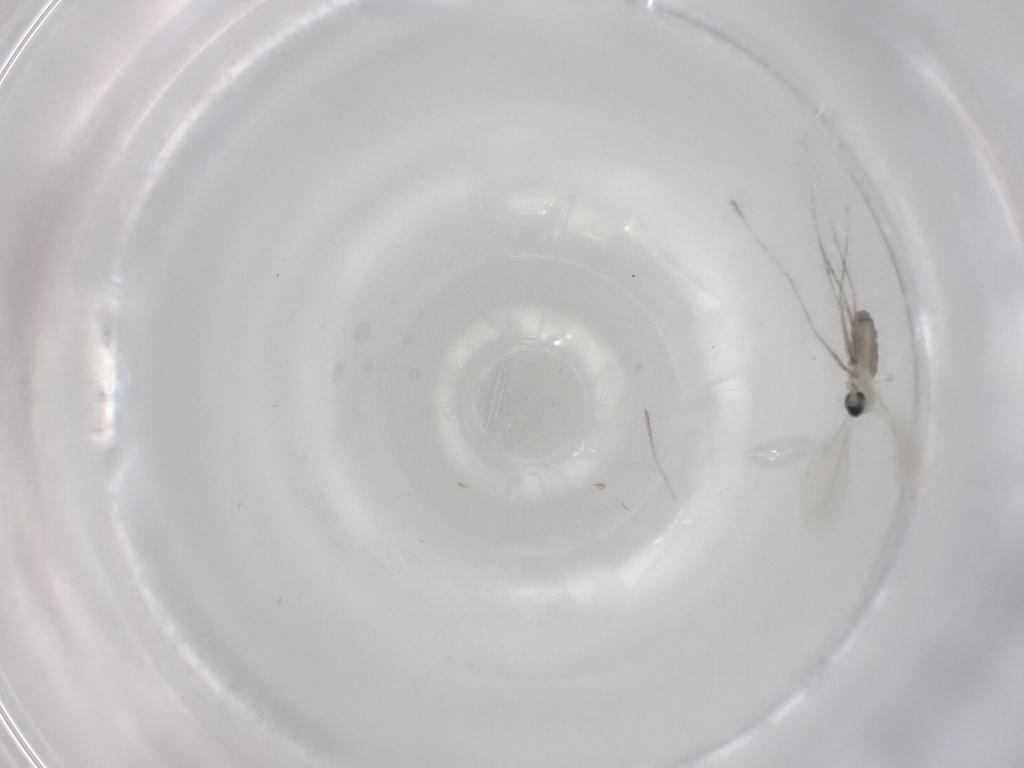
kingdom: Animalia
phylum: Arthropoda
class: Insecta
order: Diptera
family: Cecidomyiidae
